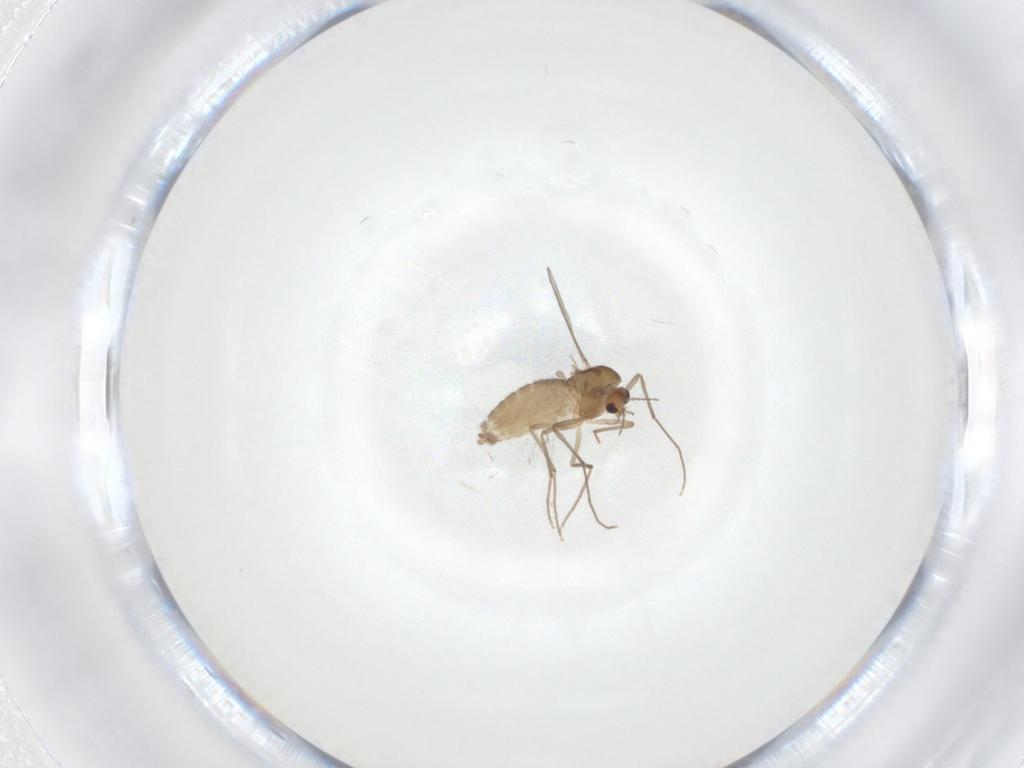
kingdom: Animalia
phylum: Arthropoda
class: Insecta
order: Diptera
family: Chironomidae
